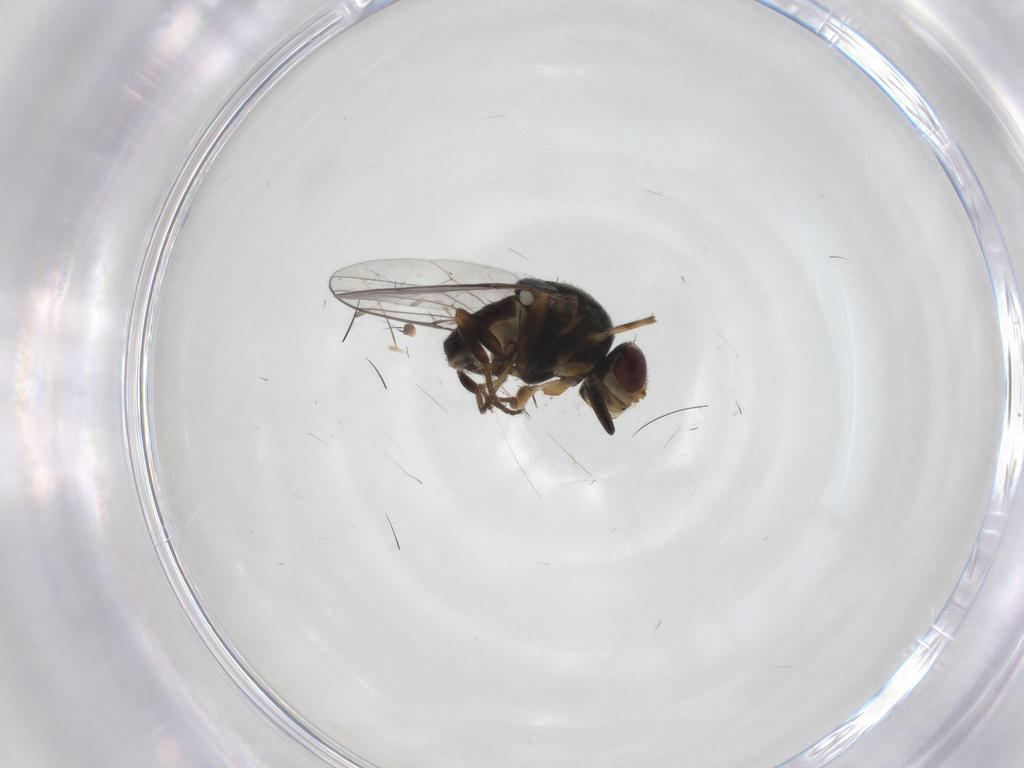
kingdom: Animalia
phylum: Arthropoda
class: Insecta
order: Diptera
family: Chloropidae
